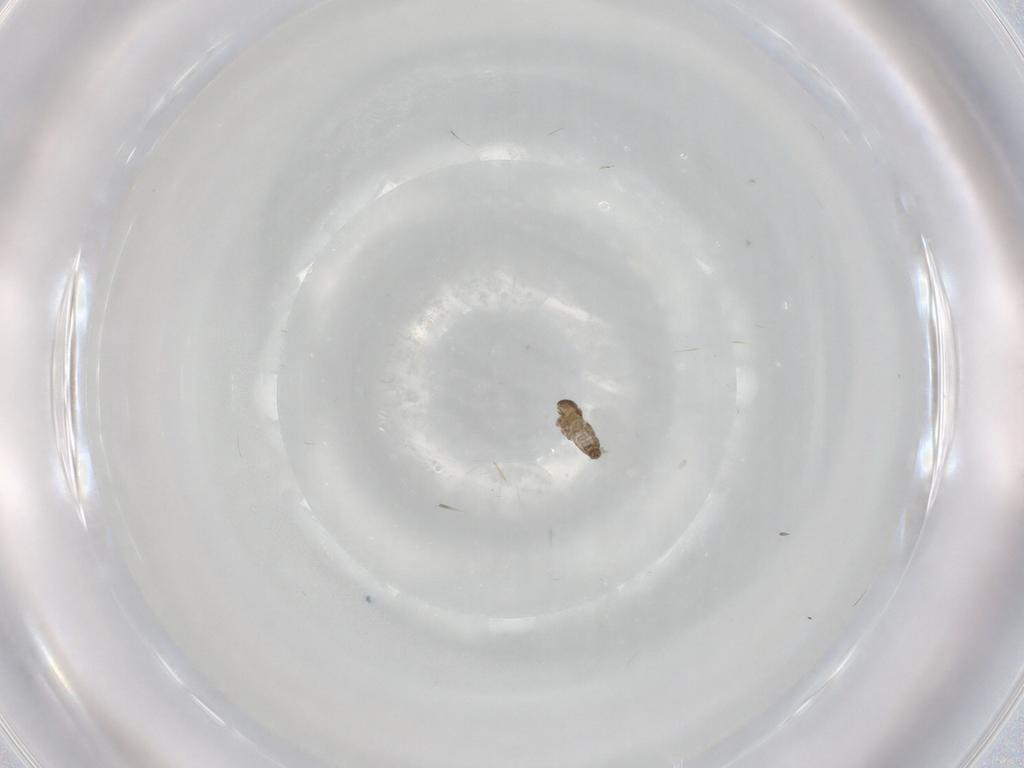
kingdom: Animalia
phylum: Arthropoda
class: Insecta
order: Diptera
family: Cecidomyiidae
